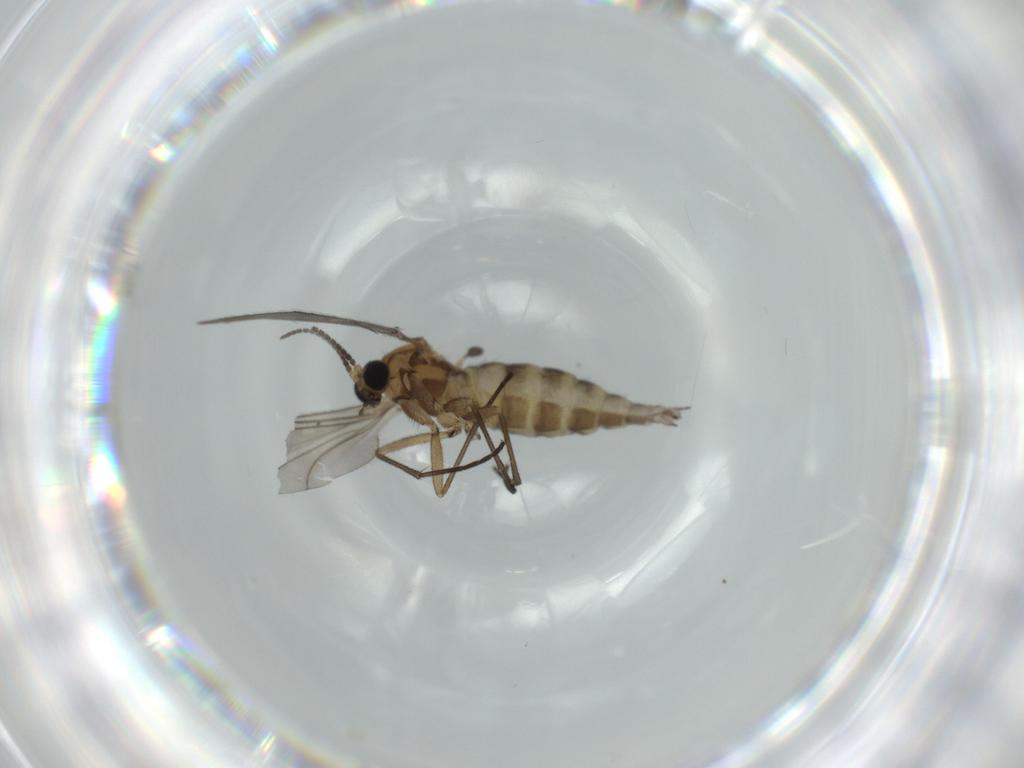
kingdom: Animalia
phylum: Arthropoda
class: Insecta
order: Diptera
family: Sciaridae
